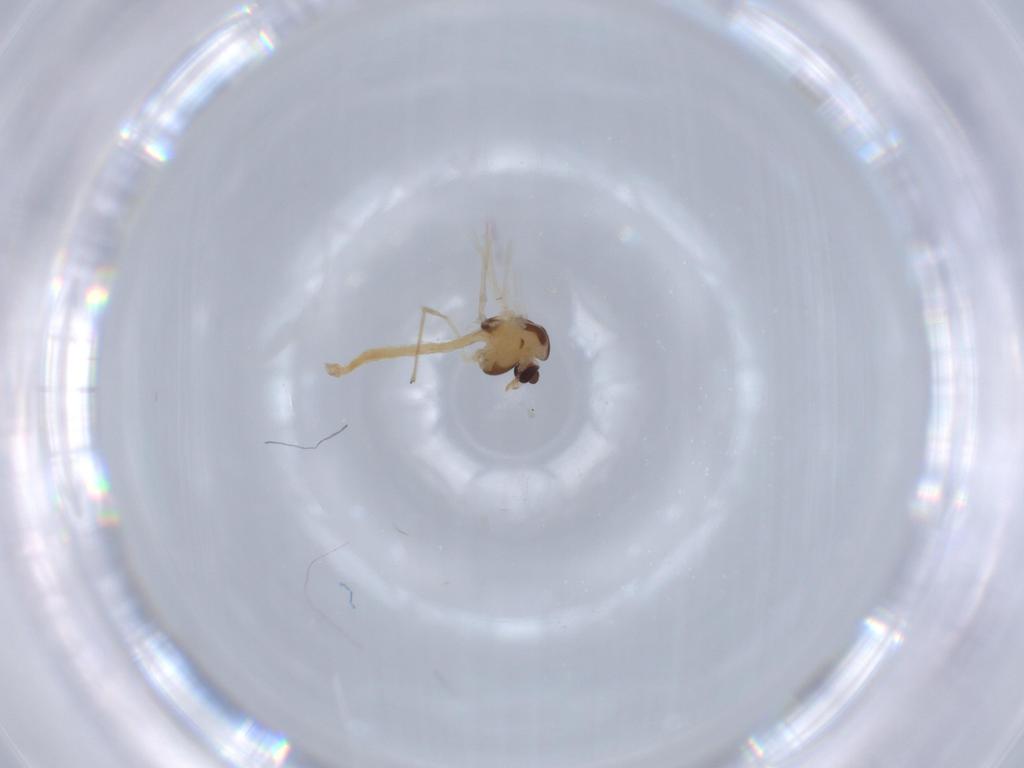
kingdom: Animalia
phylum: Arthropoda
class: Insecta
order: Diptera
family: Chironomidae
